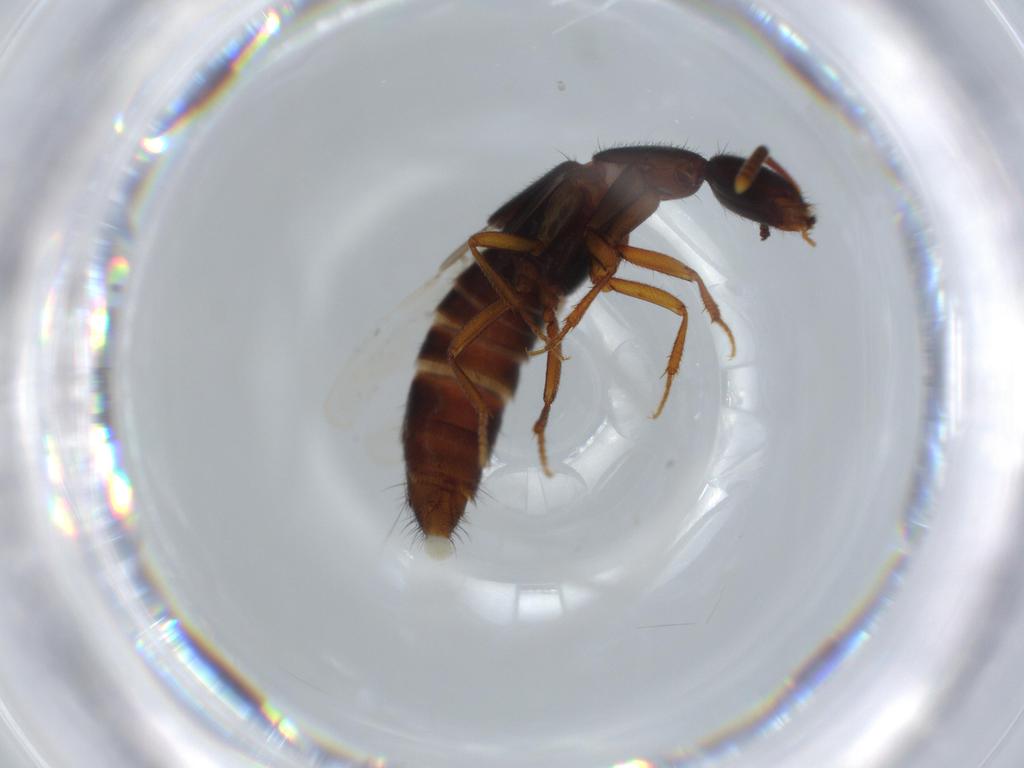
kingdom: Animalia
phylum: Arthropoda
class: Insecta
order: Coleoptera
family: Staphylinidae
